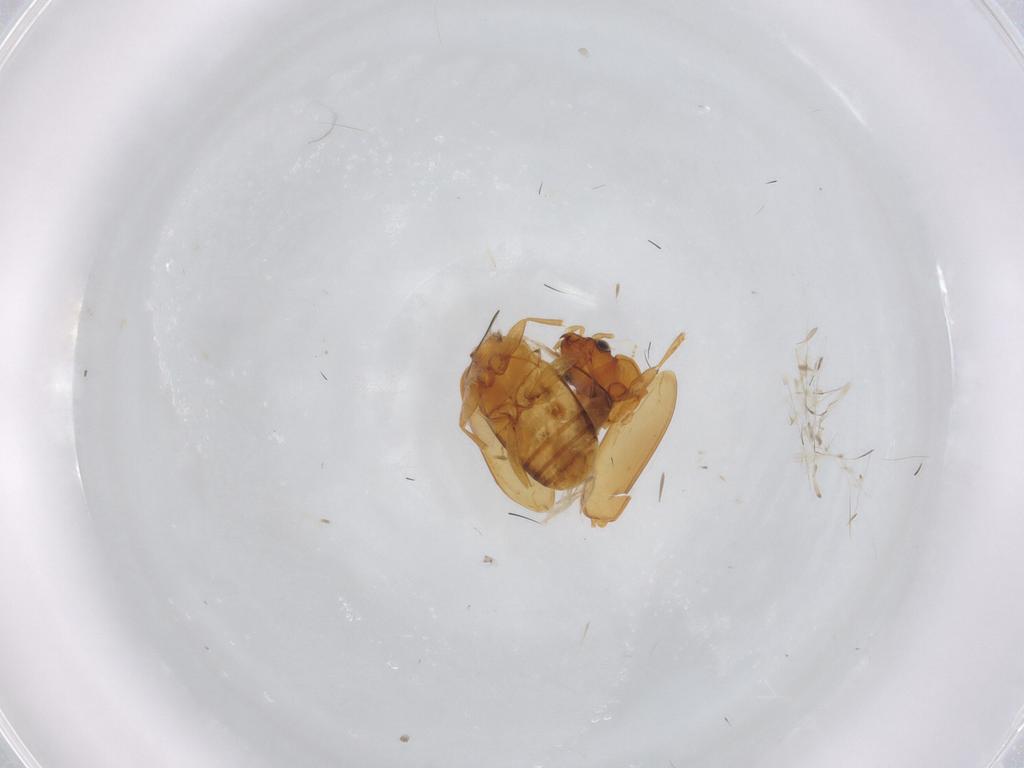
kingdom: Animalia
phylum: Arthropoda
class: Insecta
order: Coleoptera
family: Carabidae
